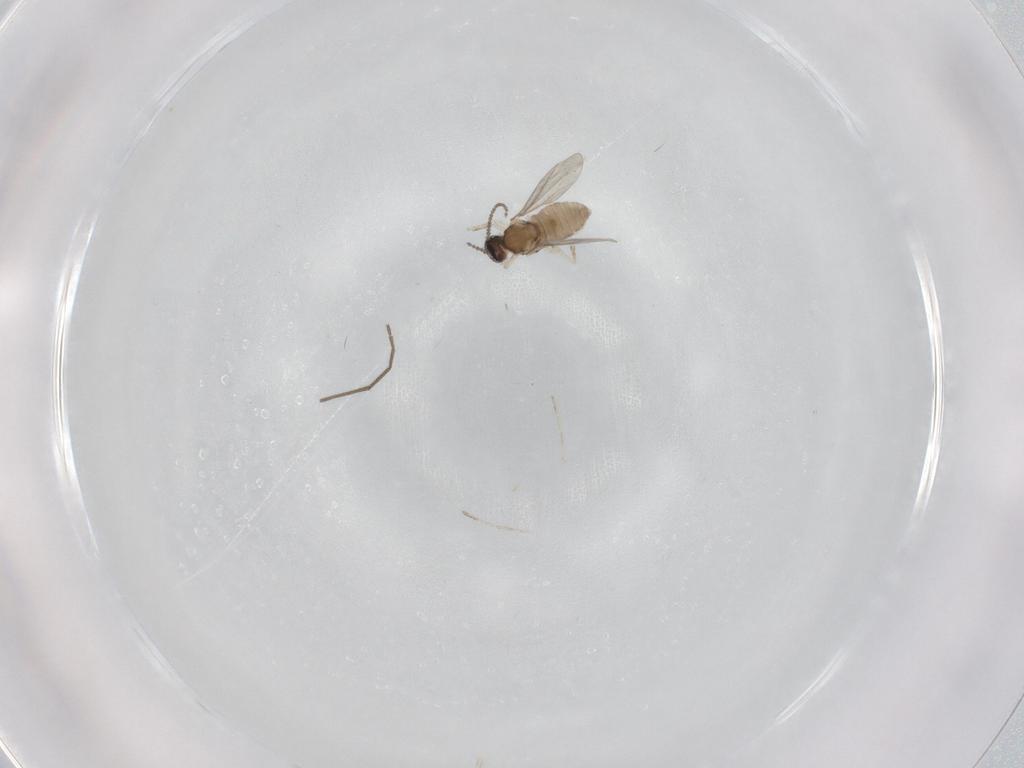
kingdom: Animalia
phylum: Arthropoda
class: Insecta
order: Diptera
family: Cecidomyiidae
